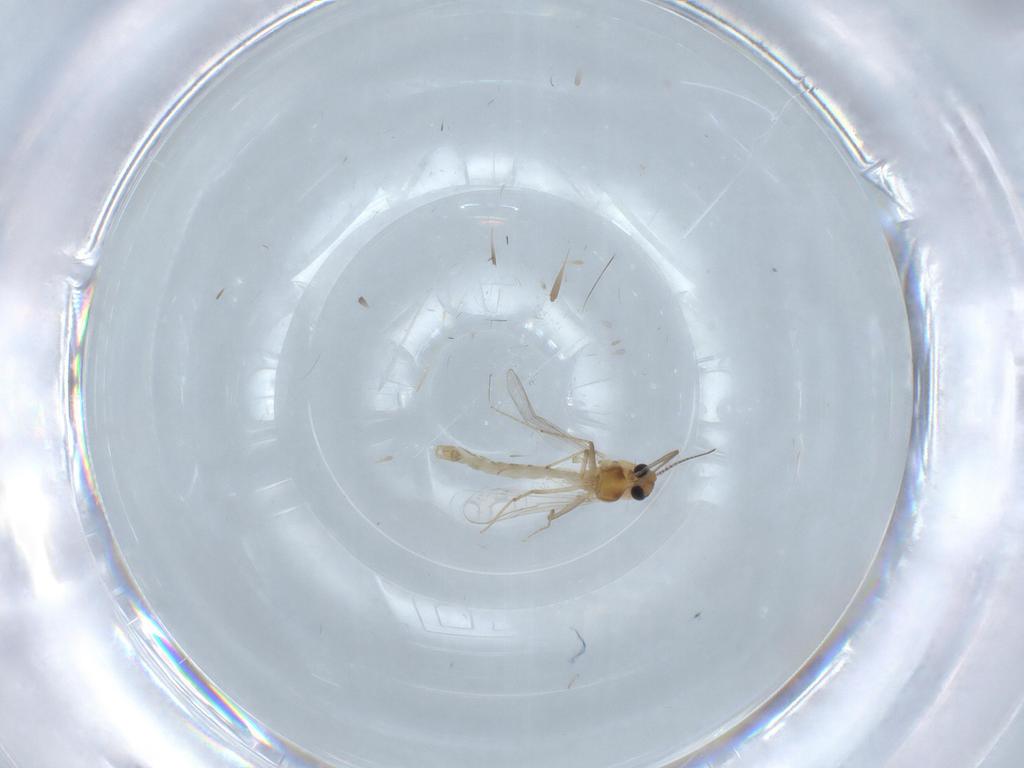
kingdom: Animalia
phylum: Arthropoda
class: Insecta
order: Diptera
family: Chironomidae
